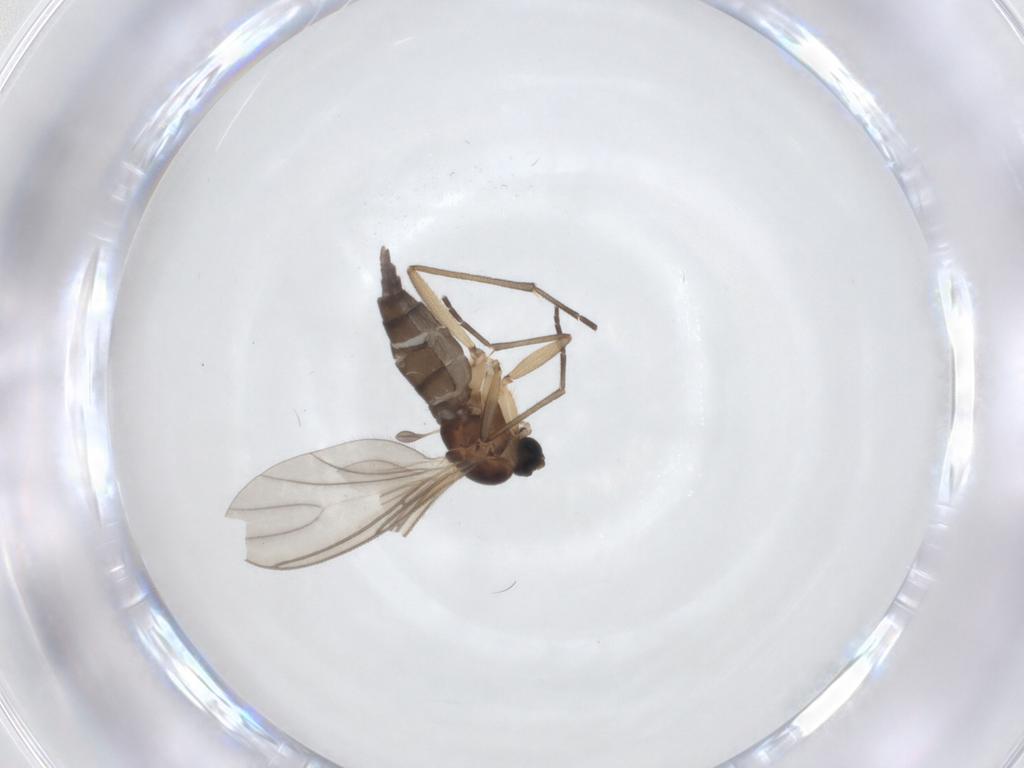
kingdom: Animalia
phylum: Arthropoda
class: Insecta
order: Diptera
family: Sciaridae
